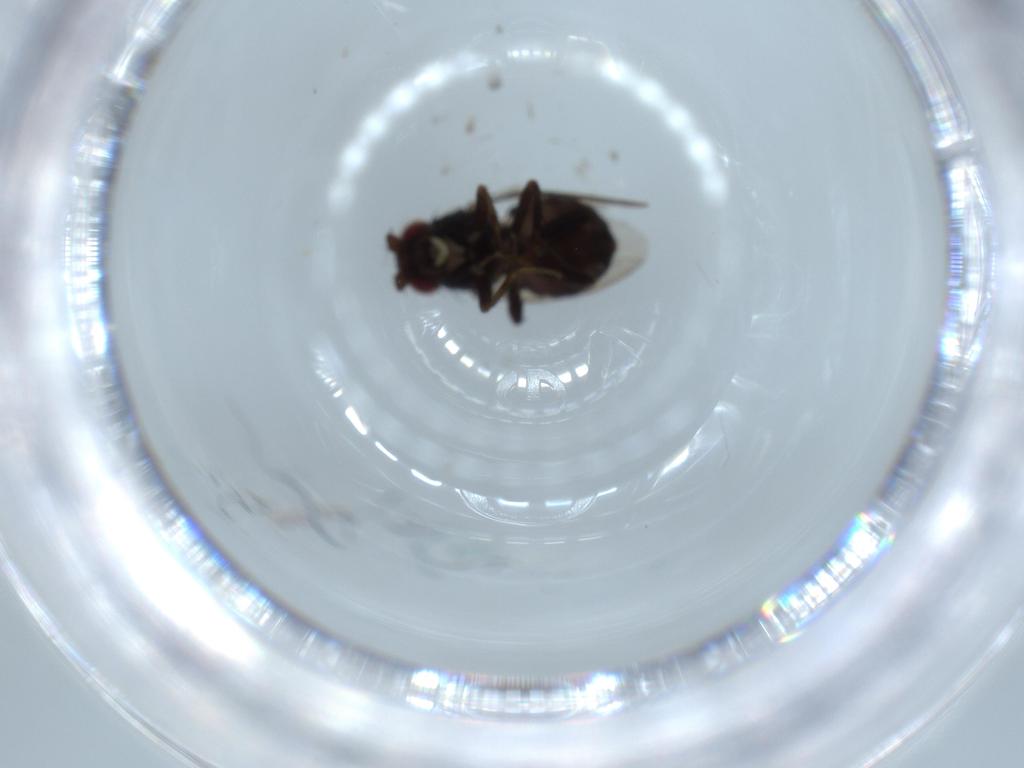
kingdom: Animalia
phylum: Arthropoda
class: Insecta
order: Diptera
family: Sphaeroceridae
